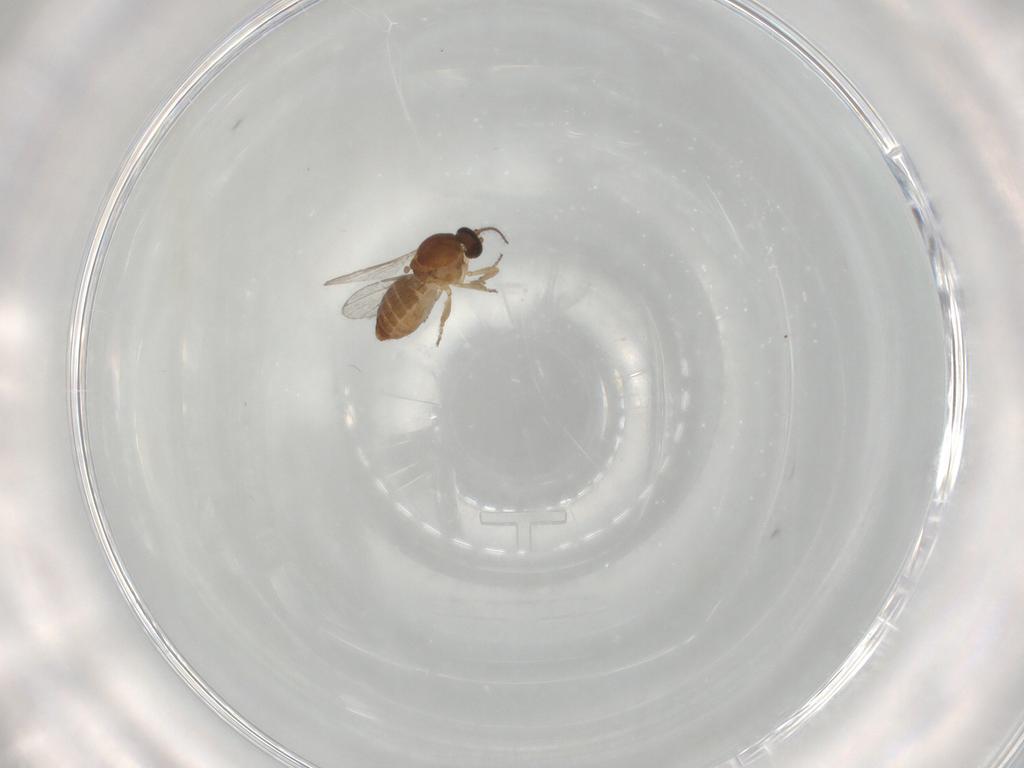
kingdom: Animalia
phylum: Arthropoda
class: Insecta
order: Diptera
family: Ceratopogonidae
